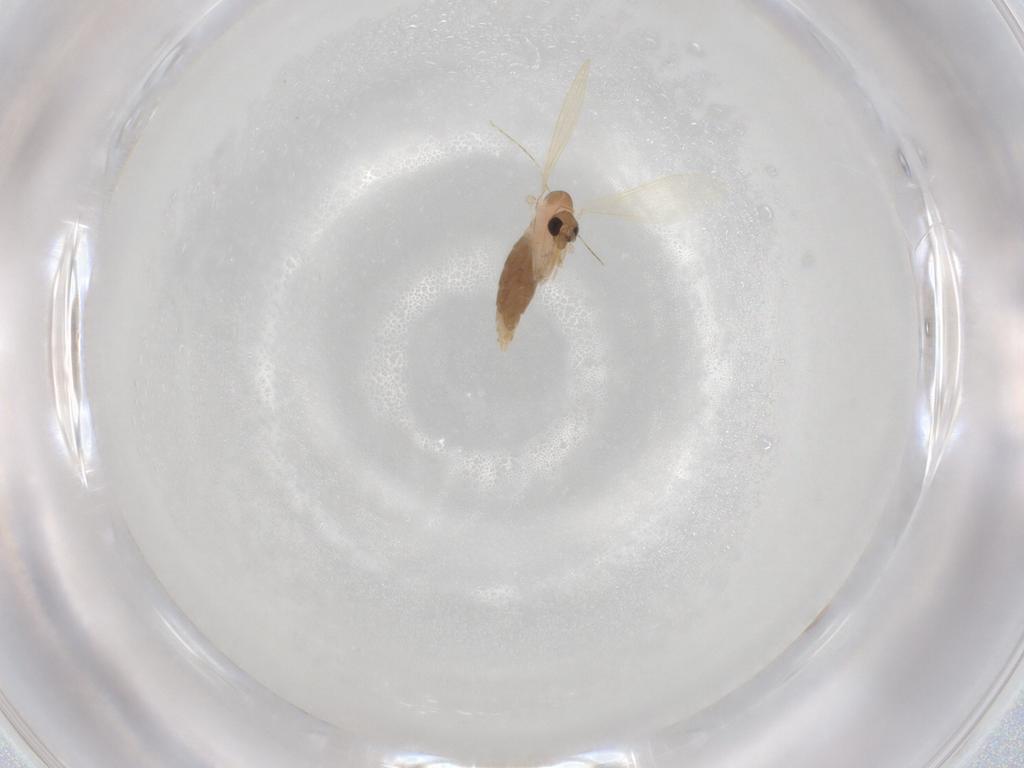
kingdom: Animalia
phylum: Arthropoda
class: Insecta
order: Diptera
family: Psychodidae
